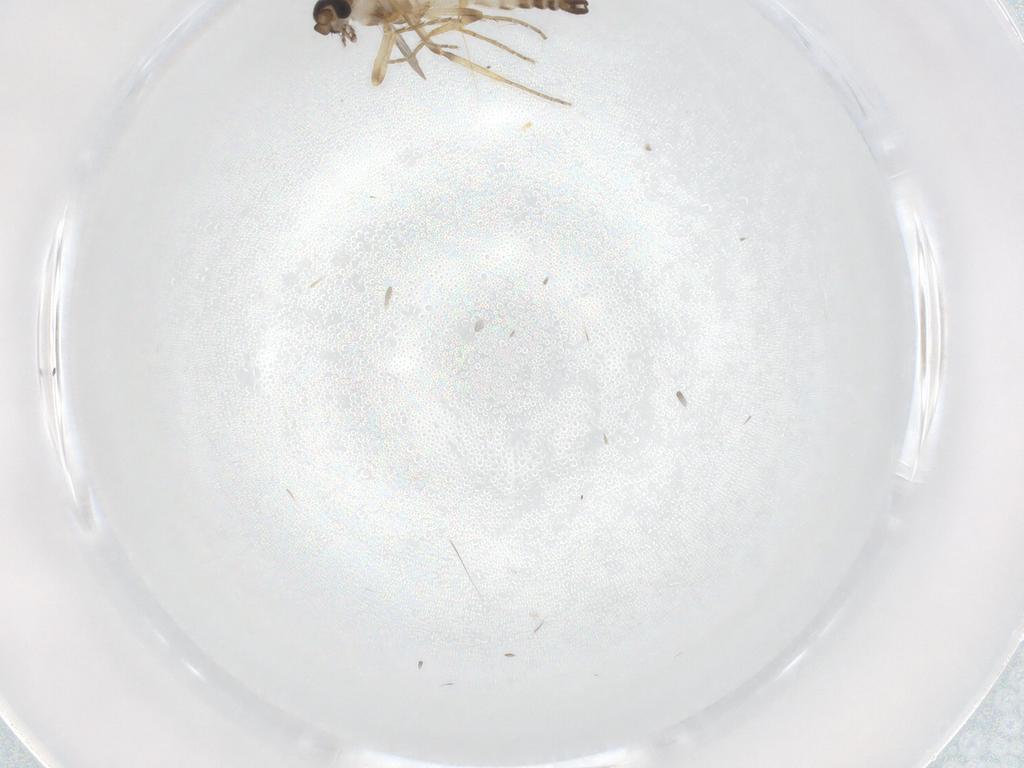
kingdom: Animalia
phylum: Arthropoda
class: Insecta
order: Diptera
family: Ceratopogonidae
